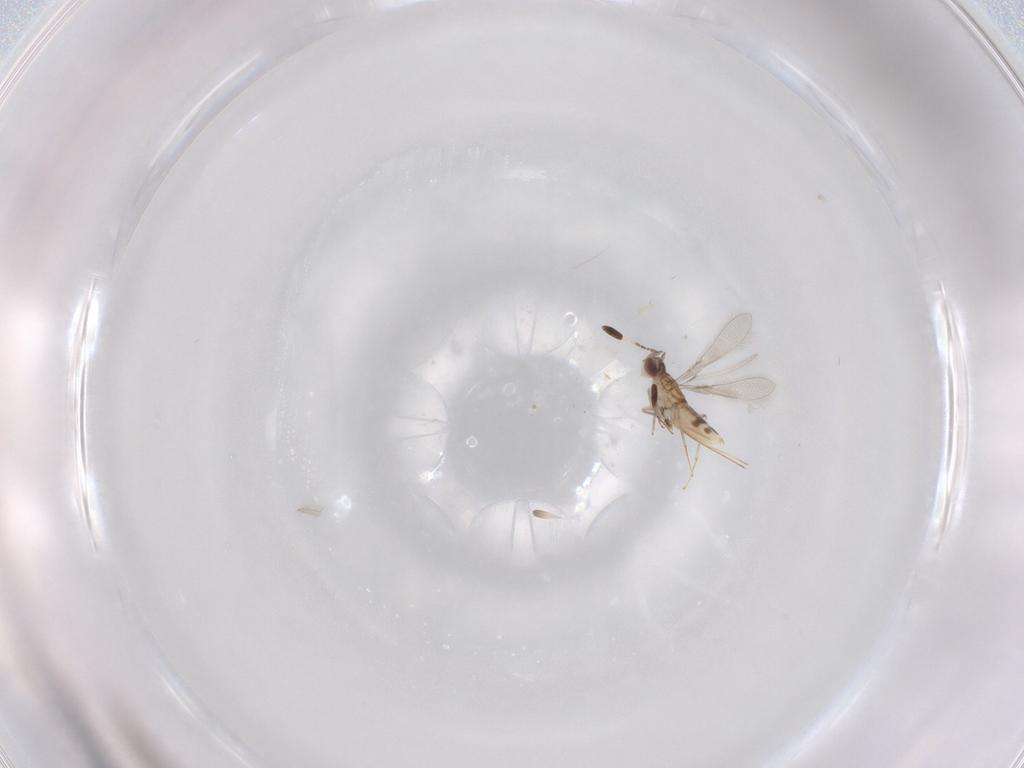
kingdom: Animalia
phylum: Arthropoda
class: Insecta
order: Hymenoptera
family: Mymaridae
